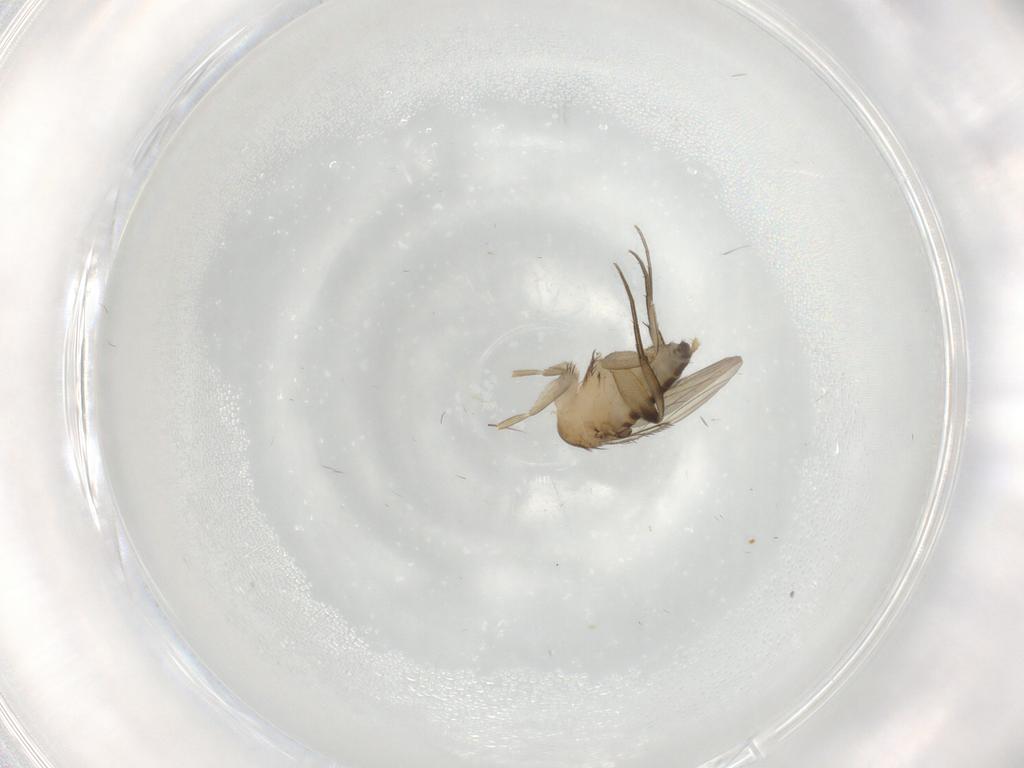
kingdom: Animalia
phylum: Arthropoda
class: Insecta
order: Diptera
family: Phoridae
